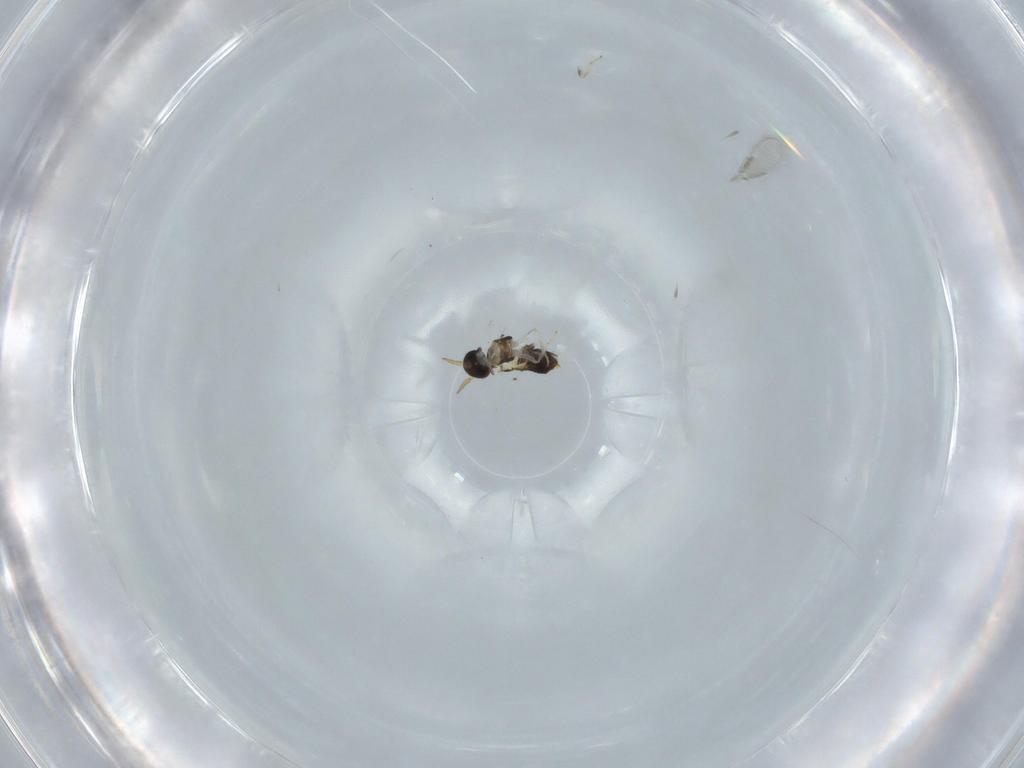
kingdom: Animalia
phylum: Arthropoda
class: Insecta
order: Hymenoptera
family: Aphelinidae
